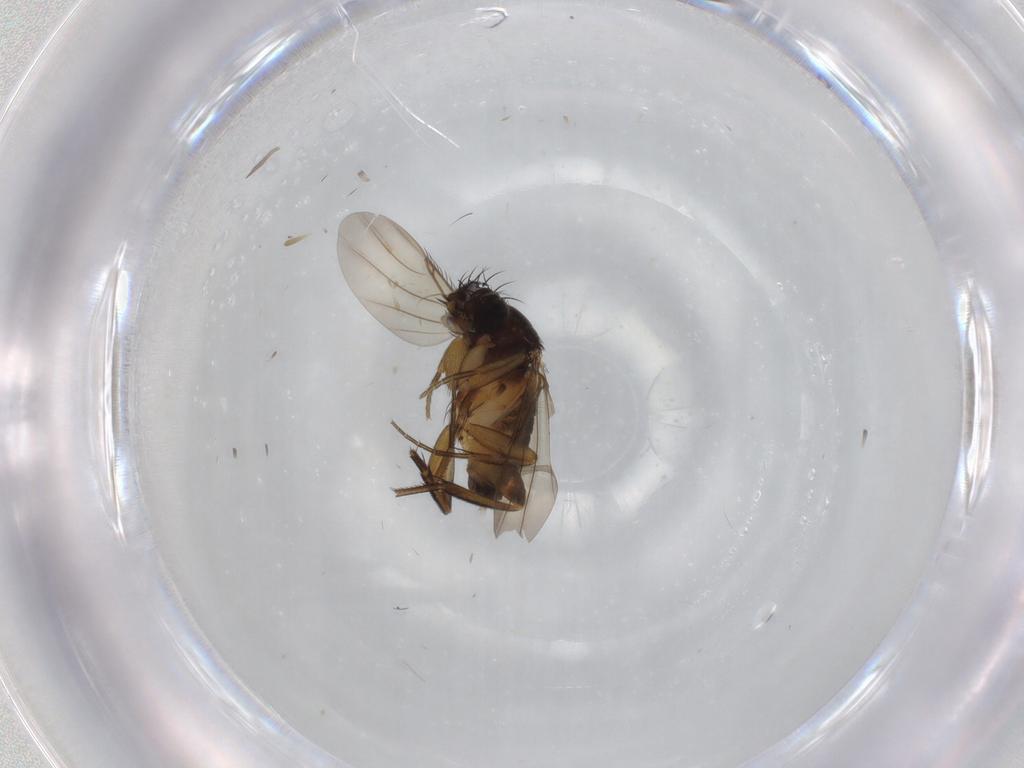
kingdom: Animalia
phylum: Arthropoda
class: Insecta
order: Diptera
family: Phoridae
